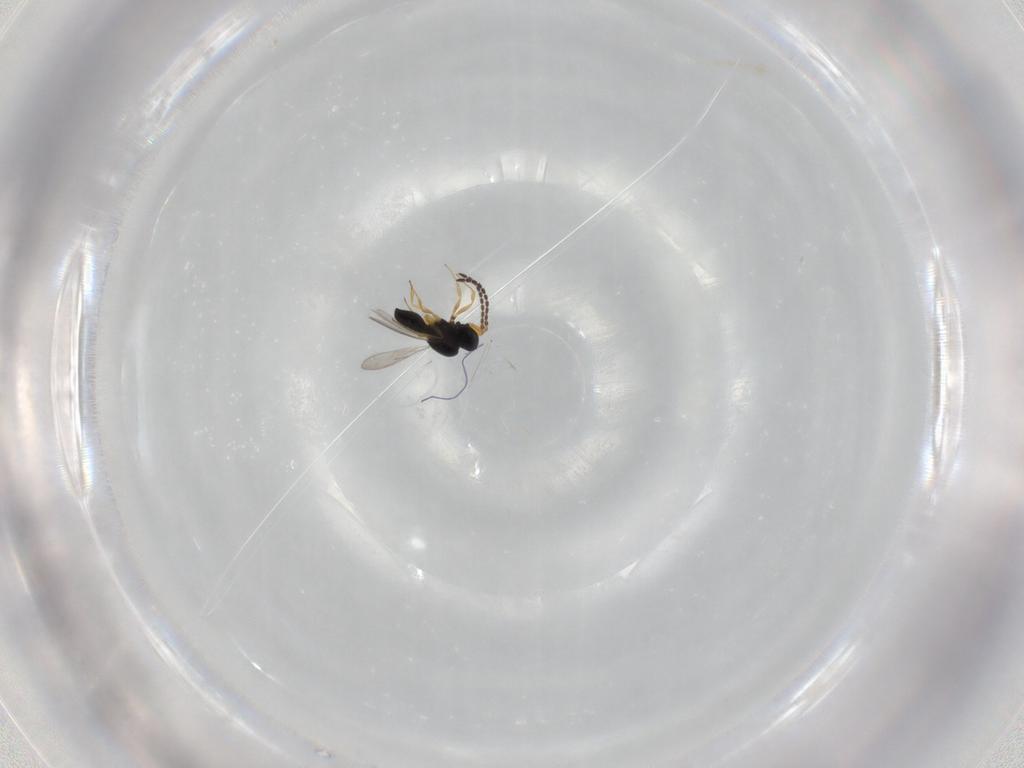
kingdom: Animalia
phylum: Arthropoda
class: Insecta
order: Hymenoptera
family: Scelionidae
